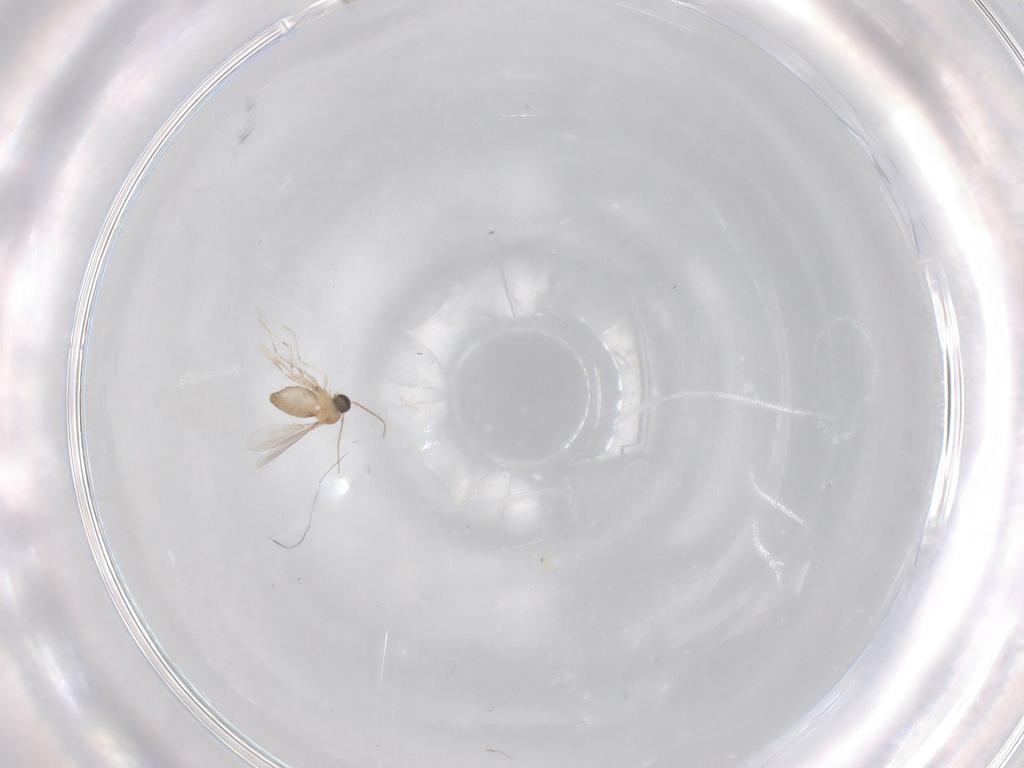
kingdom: Animalia
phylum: Arthropoda
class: Insecta
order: Diptera
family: Cecidomyiidae
